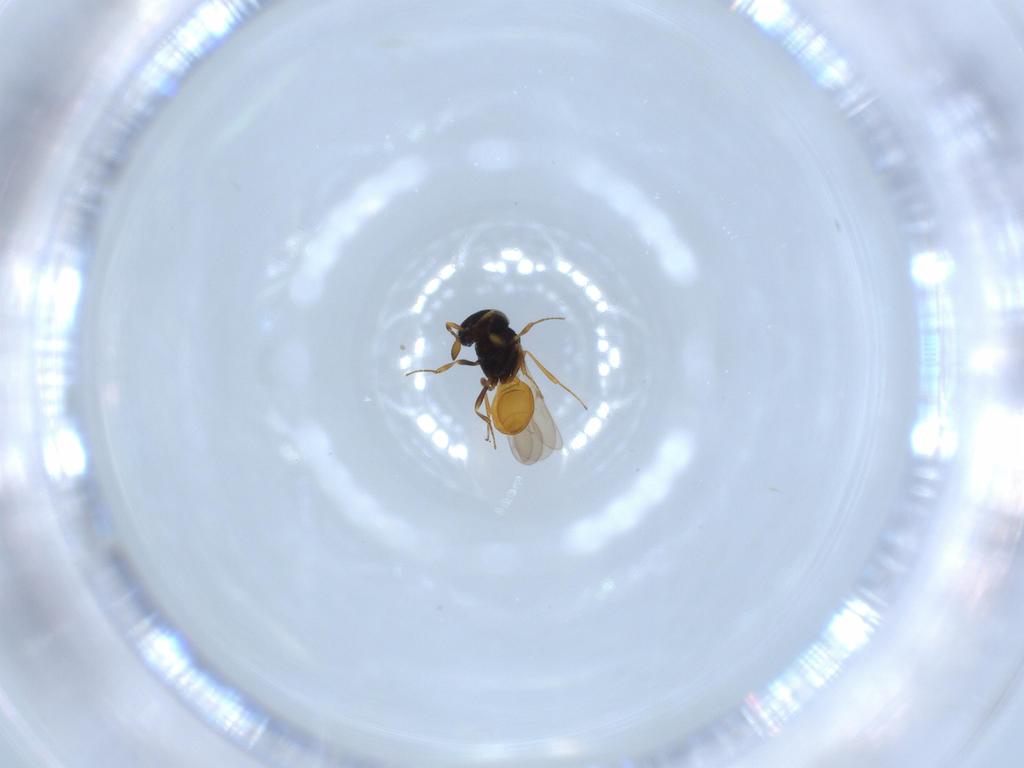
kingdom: Animalia
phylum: Arthropoda
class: Insecta
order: Hymenoptera
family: Scelionidae
